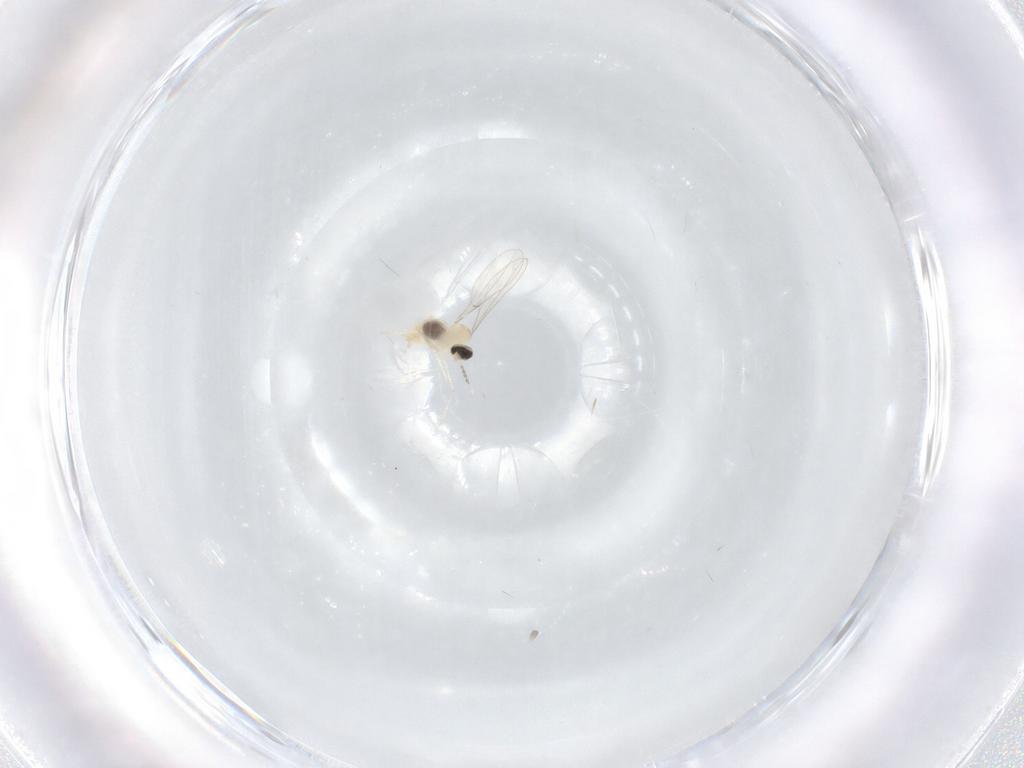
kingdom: Animalia
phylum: Arthropoda
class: Insecta
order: Diptera
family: Cecidomyiidae
